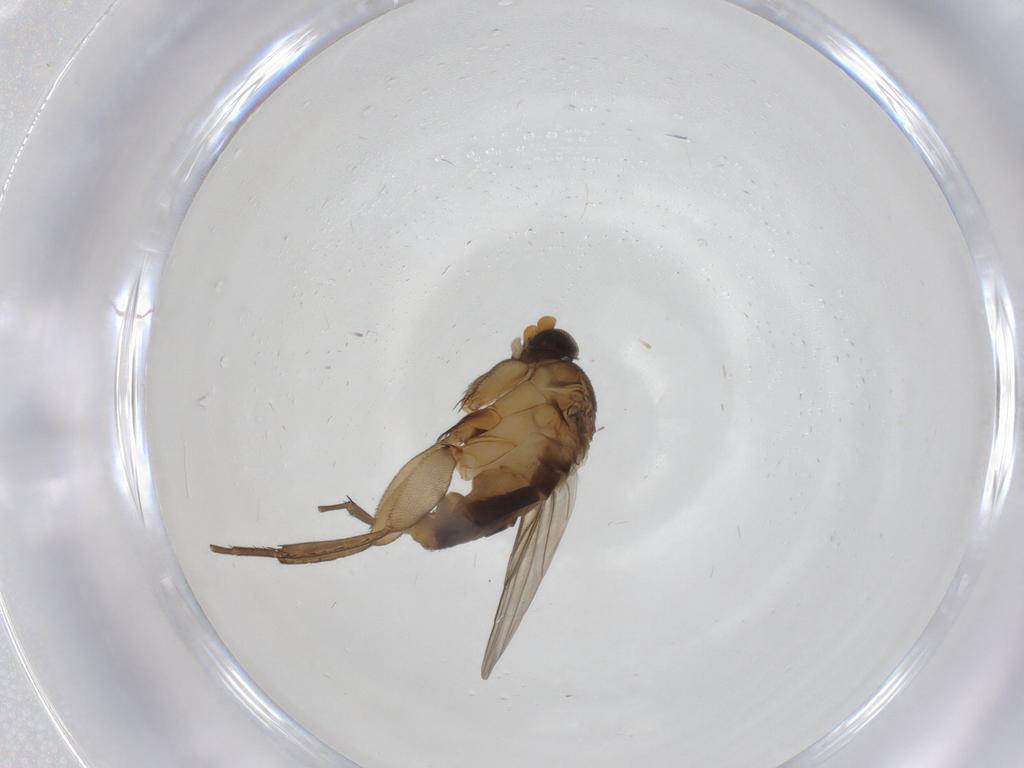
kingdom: Animalia
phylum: Arthropoda
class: Insecta
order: Diptera
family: Phoridae
